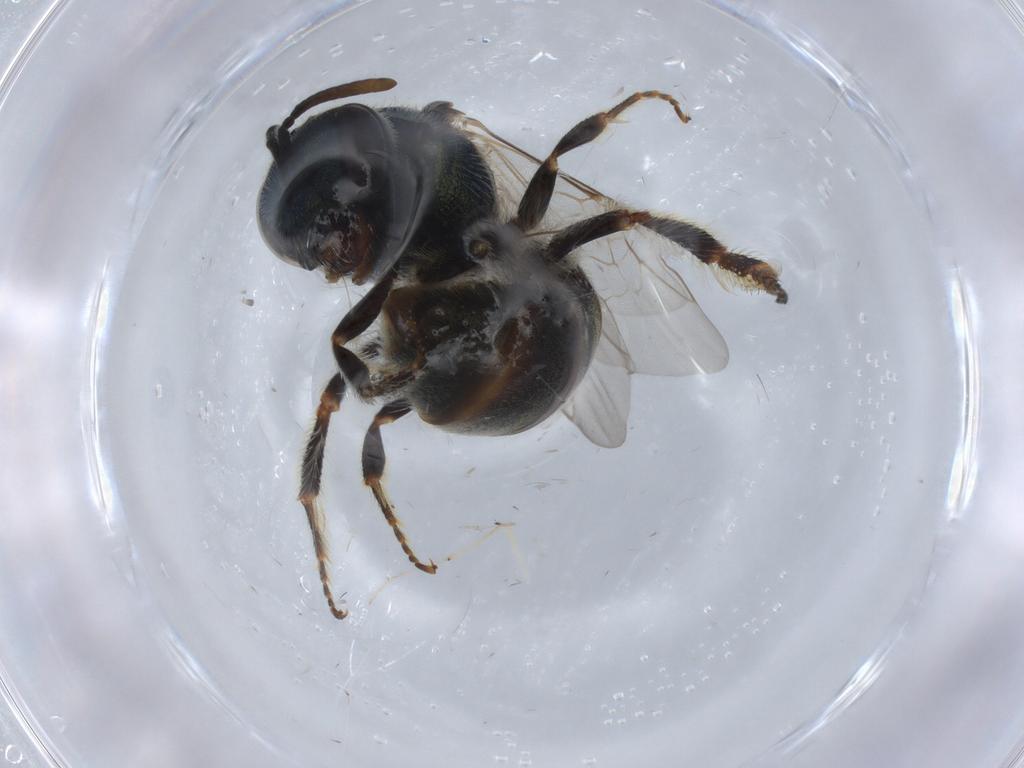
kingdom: Animalia
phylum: Arthropoda
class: Insecta
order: Hymenoptera
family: Halictidae
